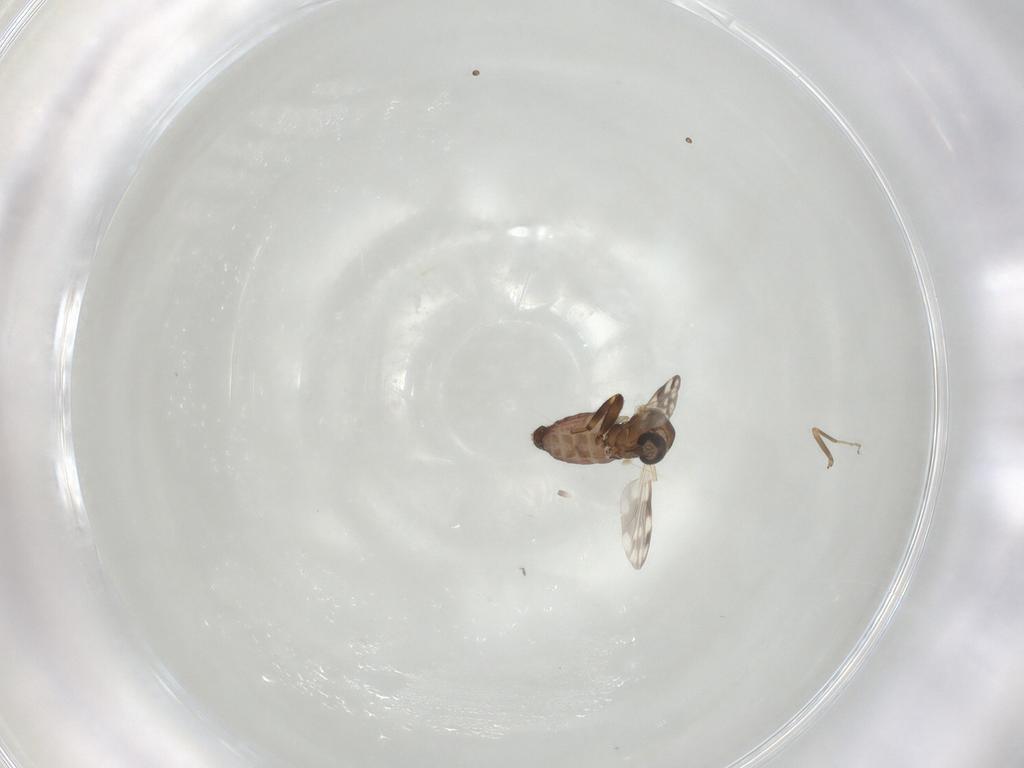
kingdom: Animalia
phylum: Arthropoda
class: Insecta
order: Diptera
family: Ceratopogonidae
